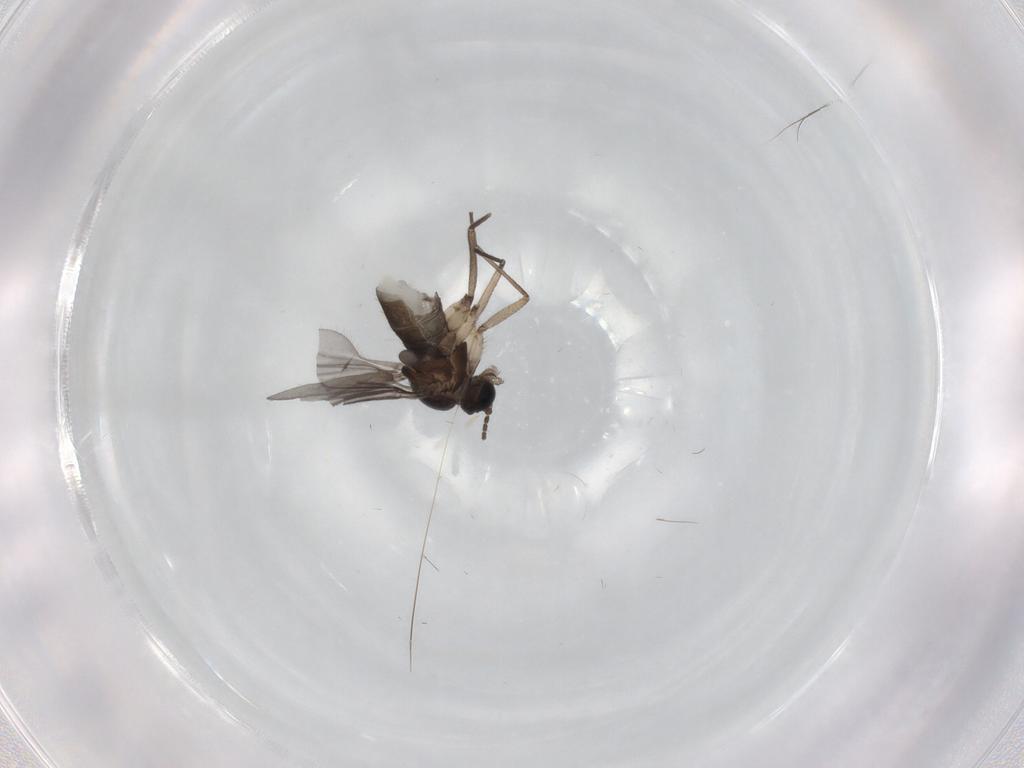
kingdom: Animalia
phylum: Arthropoda
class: Insecta
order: Diptera
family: Sciaridae
